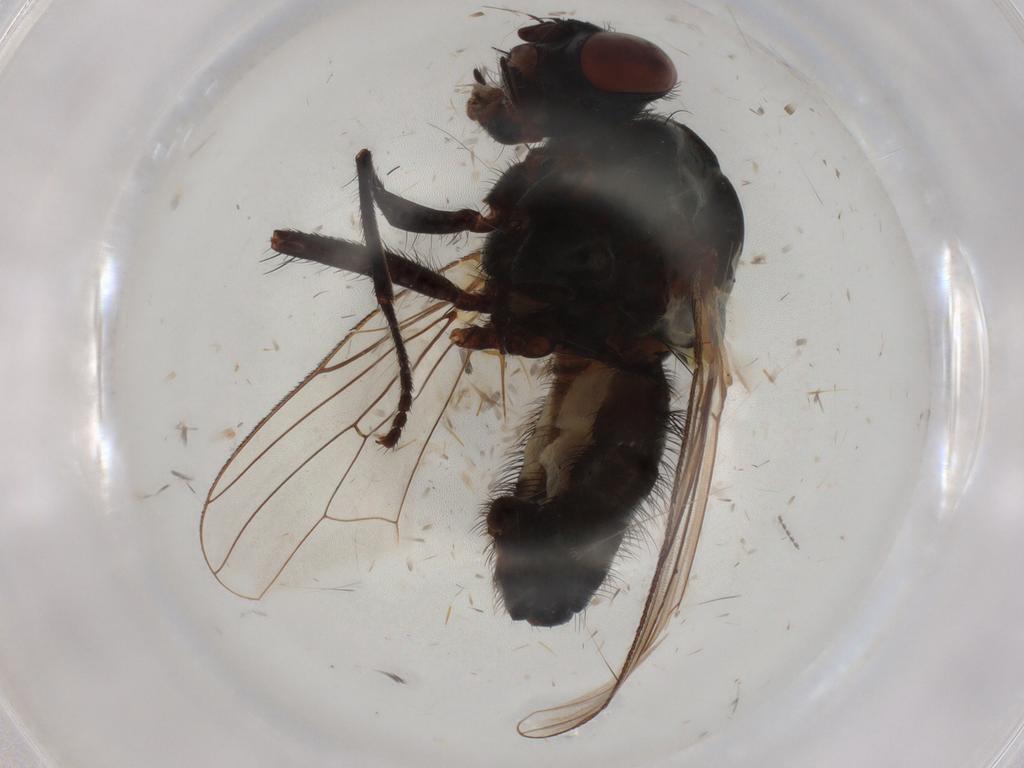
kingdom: Animalia
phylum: Arthropoda
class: Insecta
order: Diptera
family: Anthomyiidae
